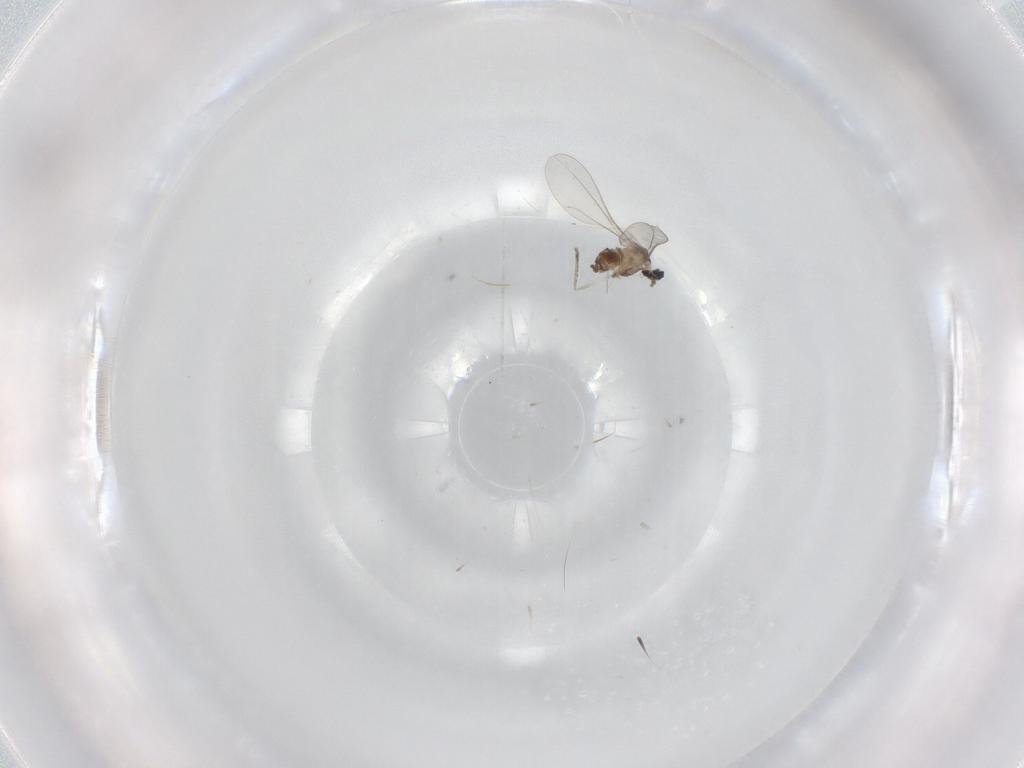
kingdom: Animalia
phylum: Arthropoda
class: Insecta
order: Diptera
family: Cecidomyiidae
